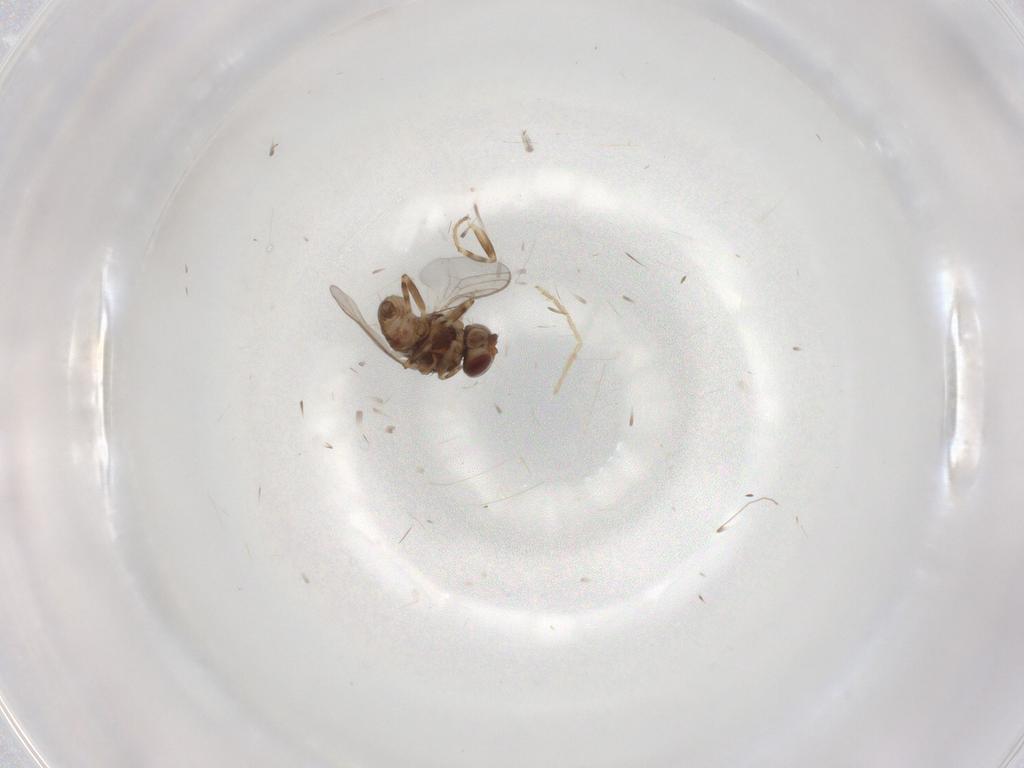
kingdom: Animalia
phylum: Arthropoda
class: Insecta
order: Diptera
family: Chloropidae
